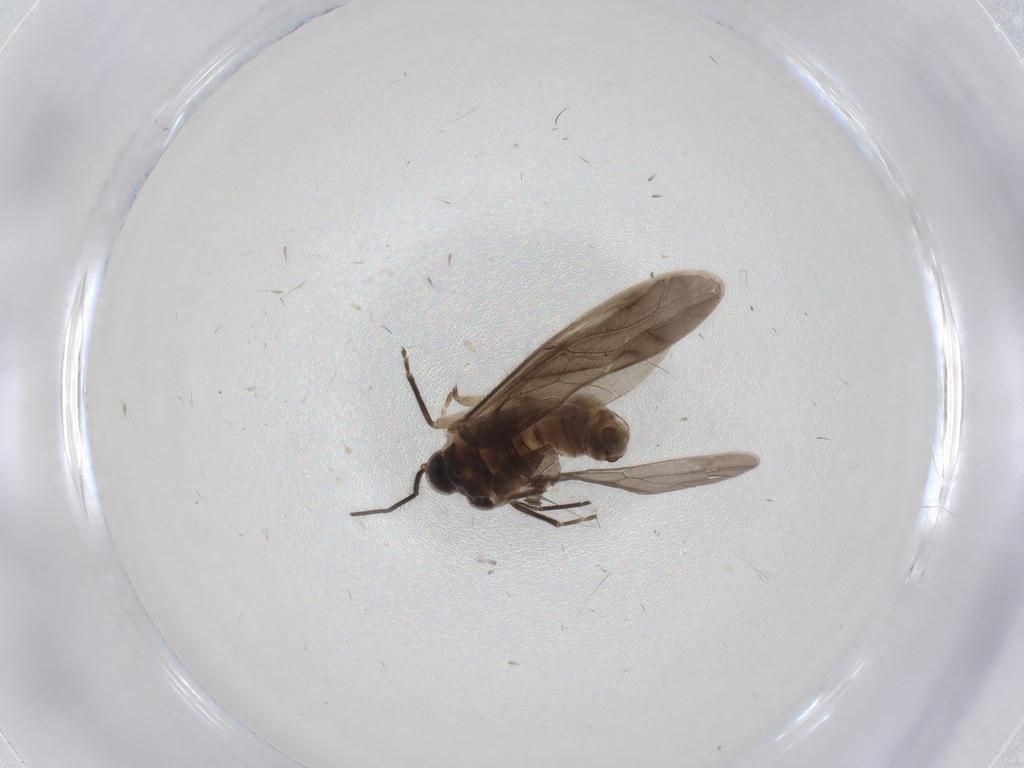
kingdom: Animalia
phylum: Arthropoda
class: Insecta
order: Psocodea
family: Caeciliusidae
